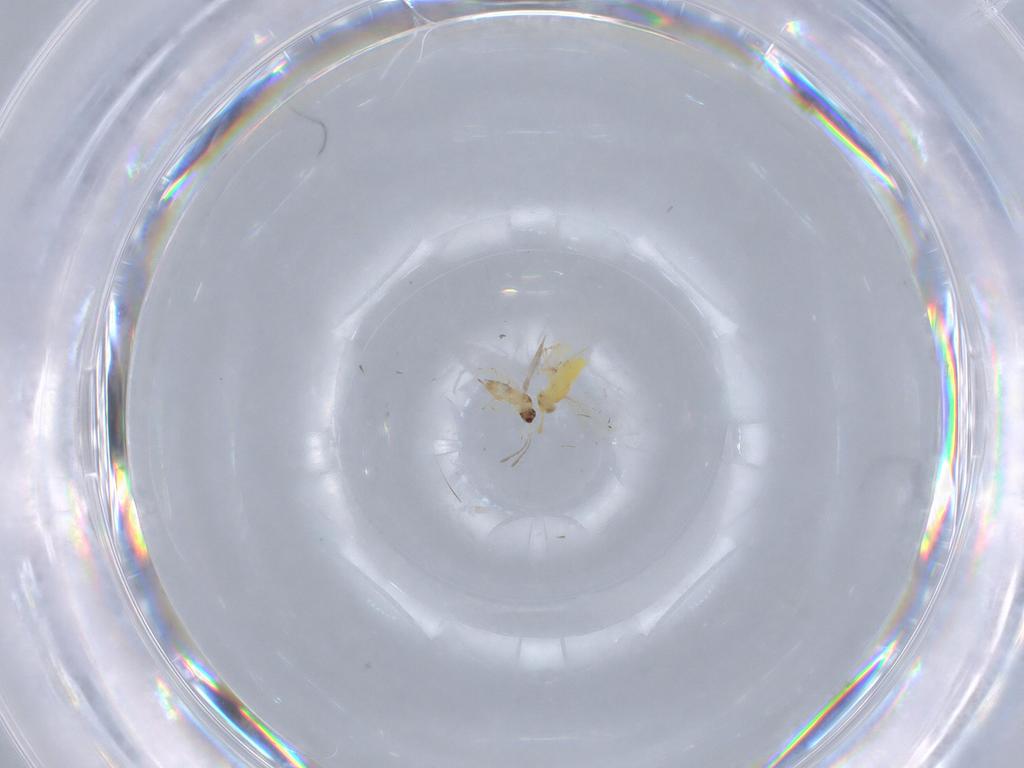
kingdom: Animalia
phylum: Arthropoda
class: Insecta
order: Hymenoptera
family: Mymaridae
